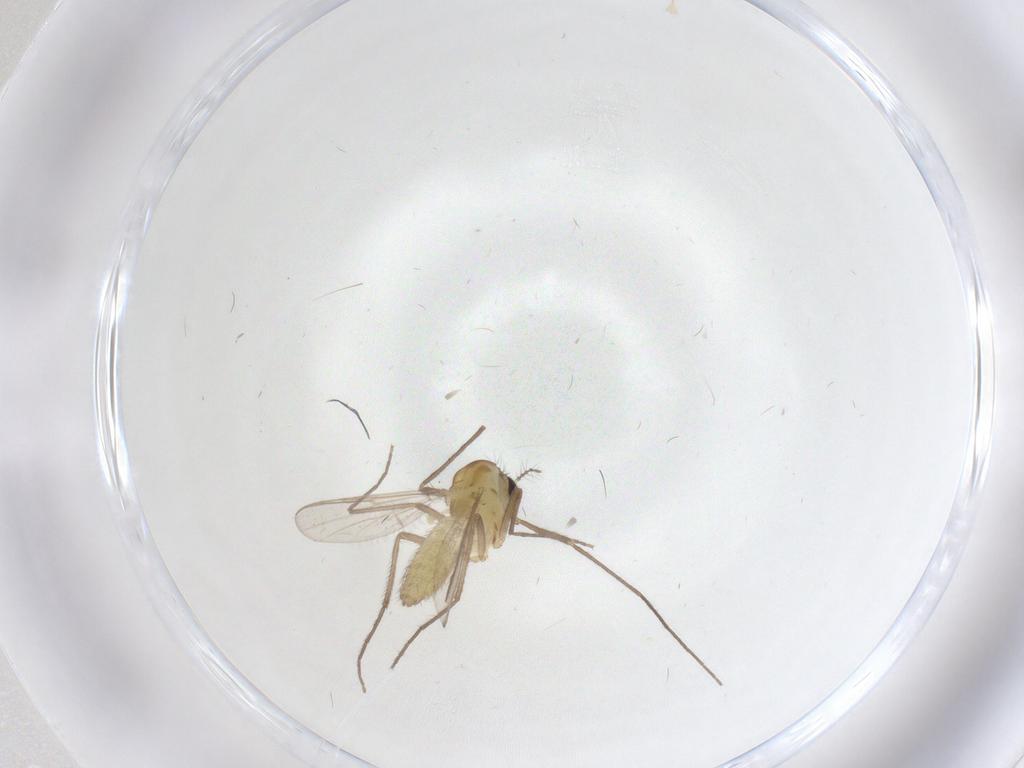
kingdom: Animalia
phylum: Arthropoda
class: Insecta
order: Diptera
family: Chironomidae
